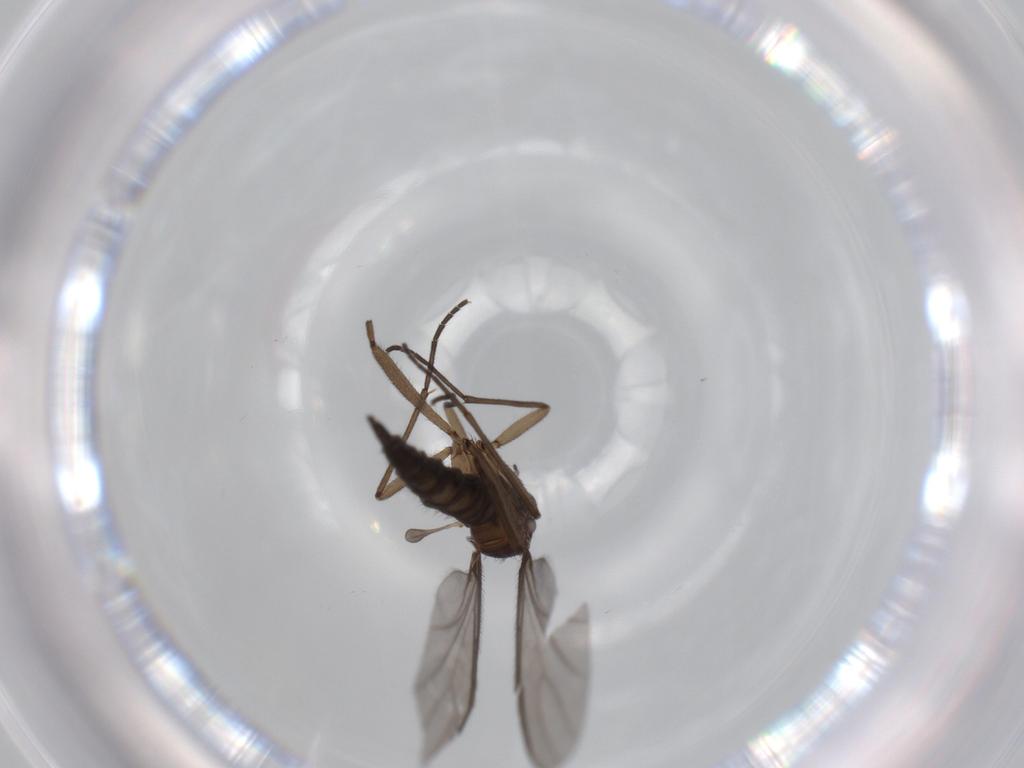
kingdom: Animalia
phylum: Arthropoda
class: Insecta
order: Diptera
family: Sciaridae
